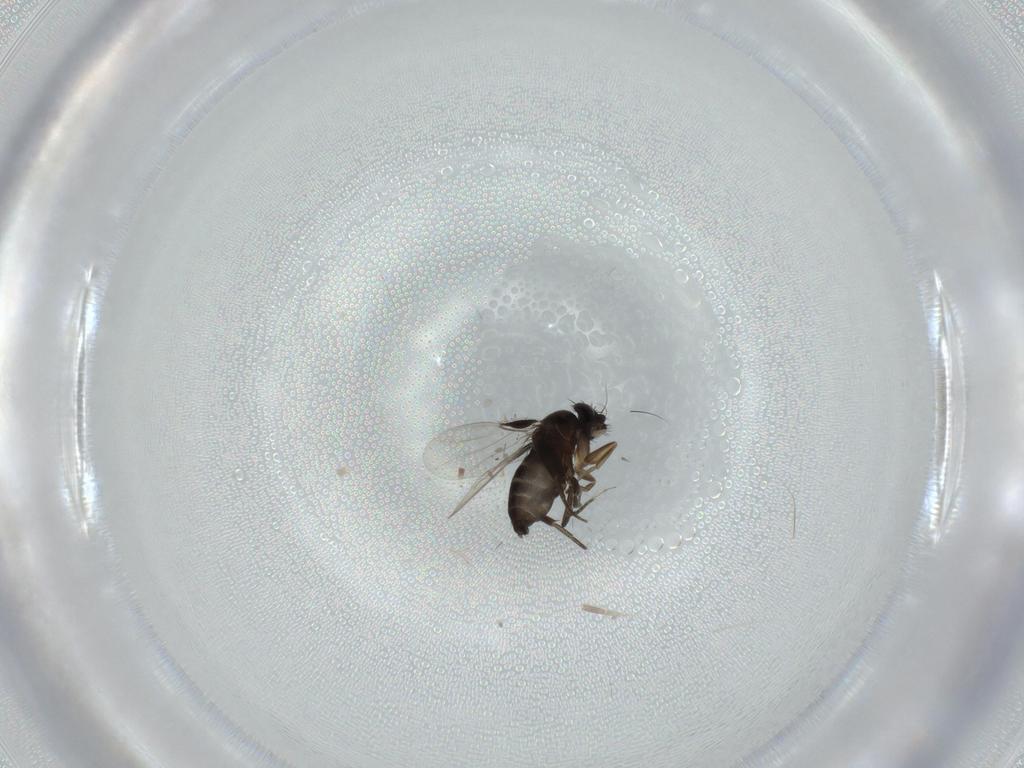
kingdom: Animalia
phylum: Arthropoda
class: Insecta
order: Diptera
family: Phoridae
